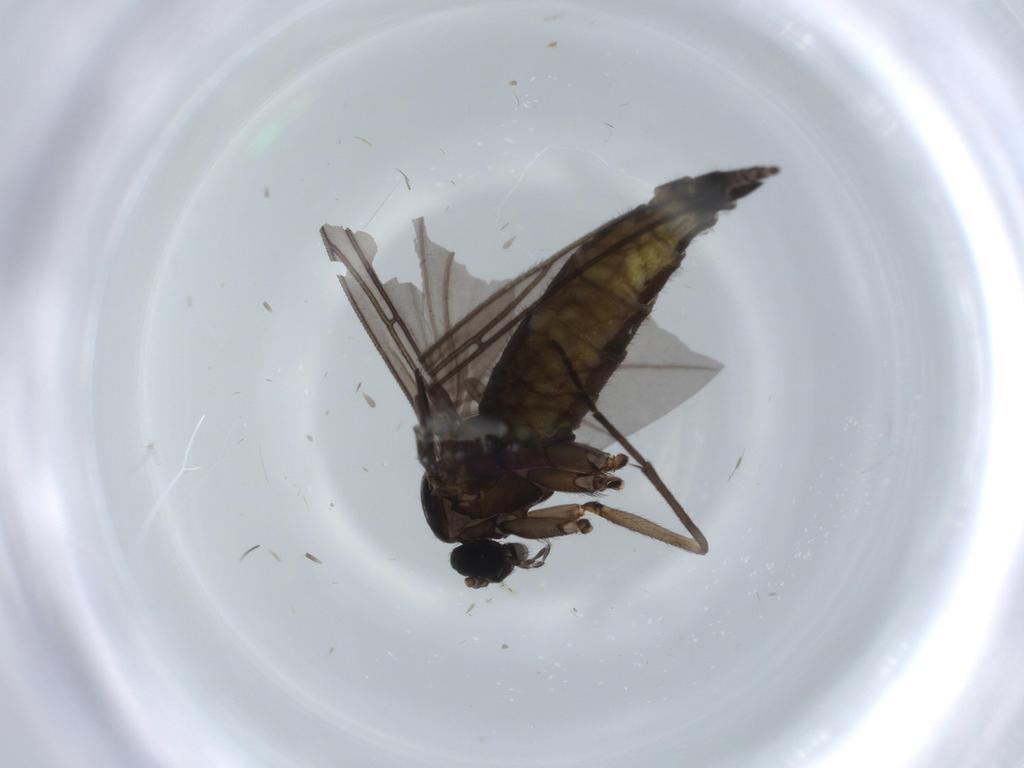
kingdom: Animalia
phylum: Arthropoda
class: Insecta
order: Diptera
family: Sciaridae
